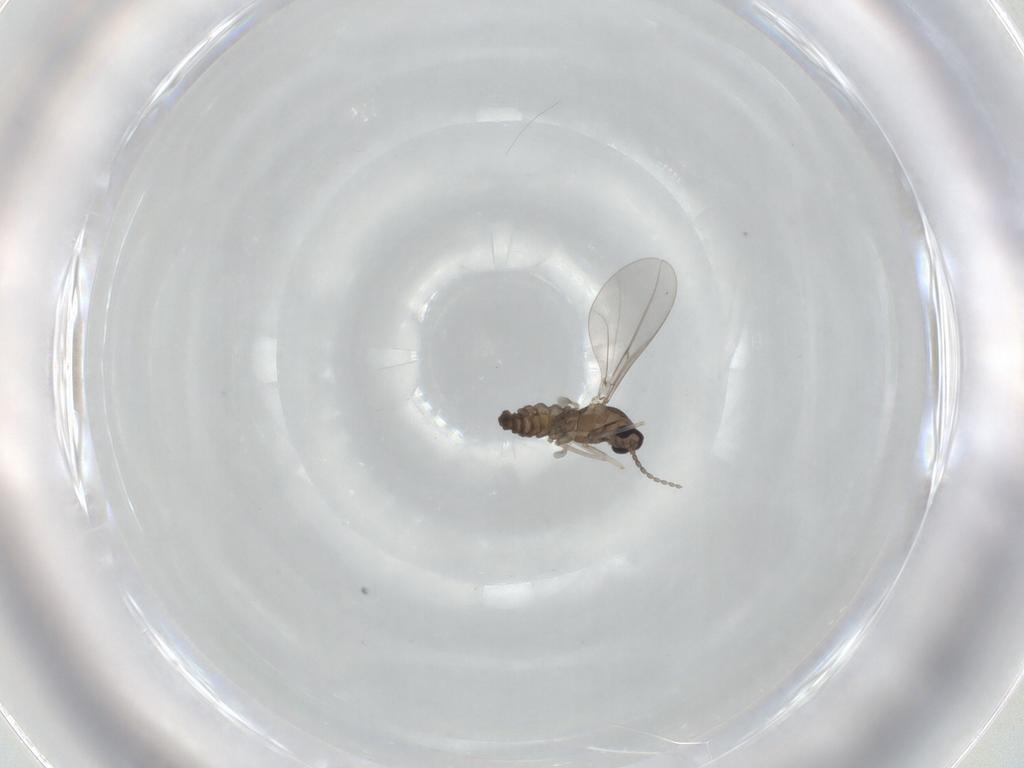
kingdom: Animalia
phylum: Arthropoda
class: Insecta
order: Diptera
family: Cecidomyiidae
